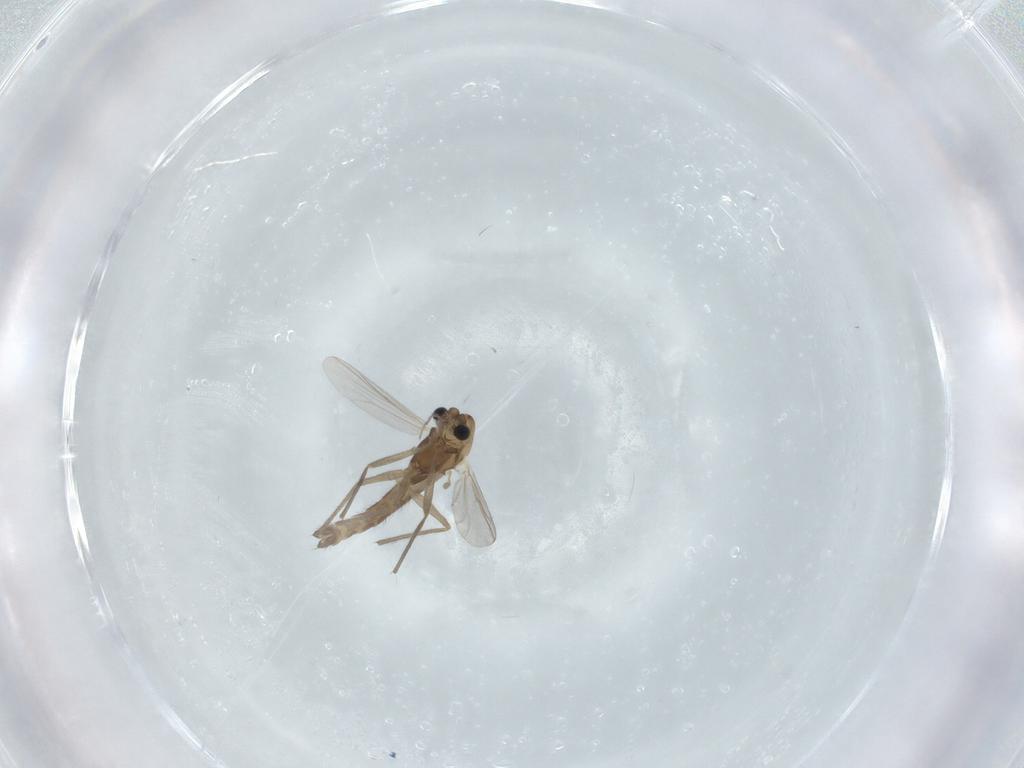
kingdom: Animalia
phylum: Arthropoda
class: Insecta
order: Diptera
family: Chironomidae
